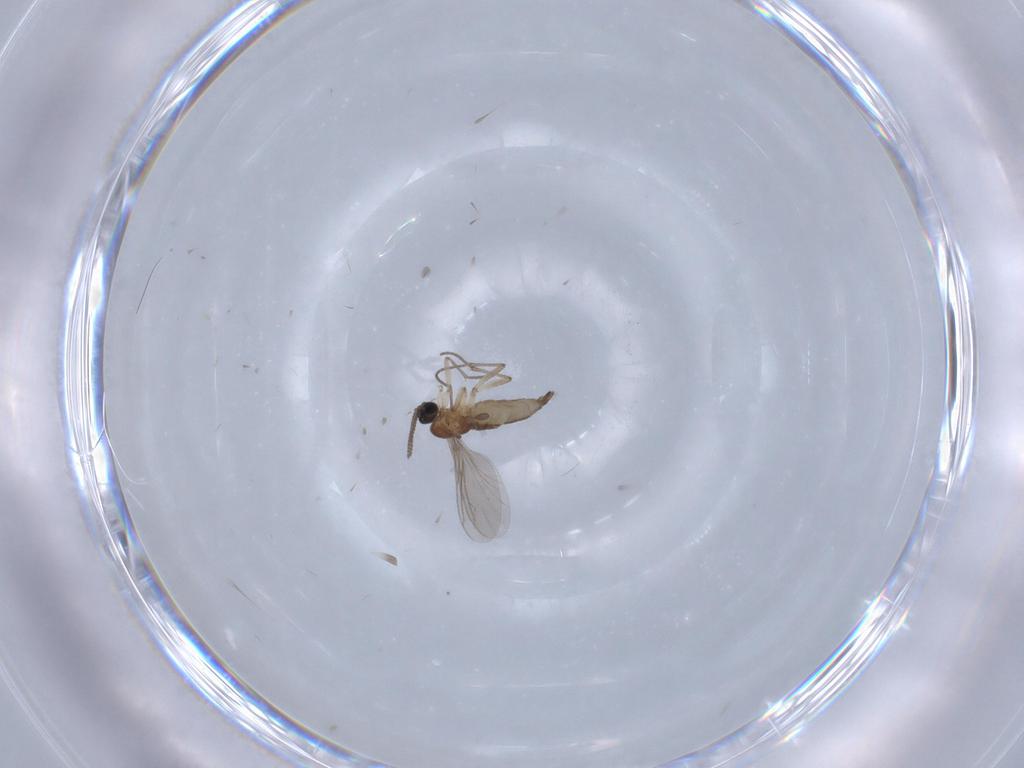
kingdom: Animalia
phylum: Arthropoda
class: Insecta
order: Diptera
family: Sciaridae
